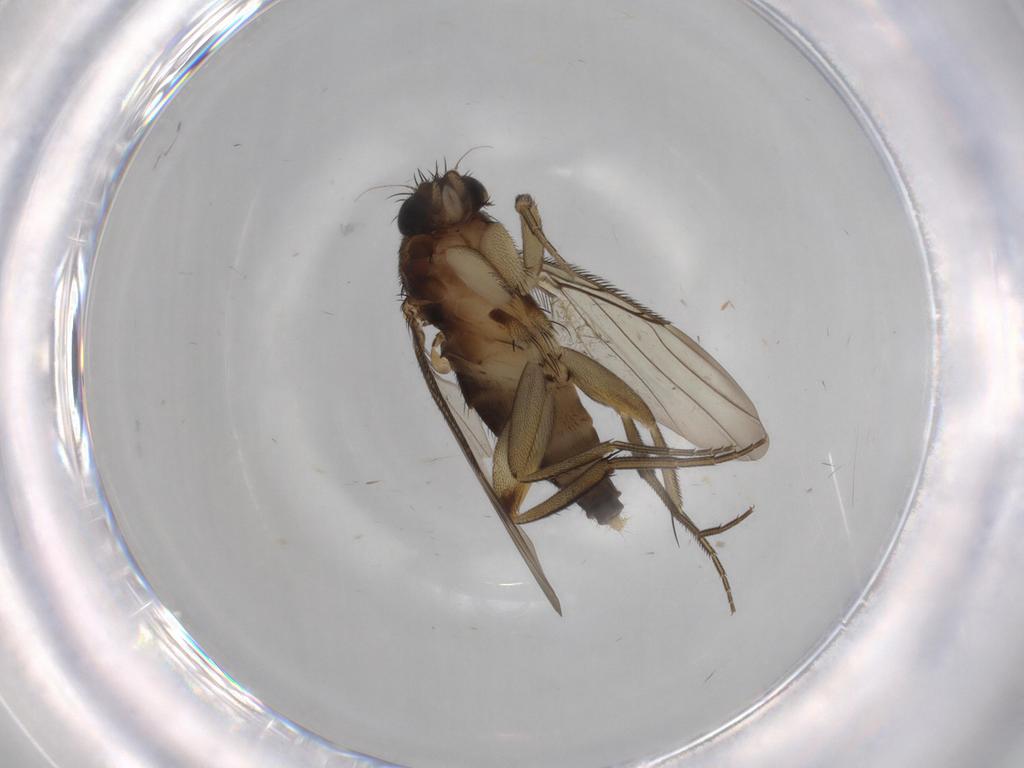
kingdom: Animalia
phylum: Arthropoda
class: Insecta
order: Diptera
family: Phoridae
